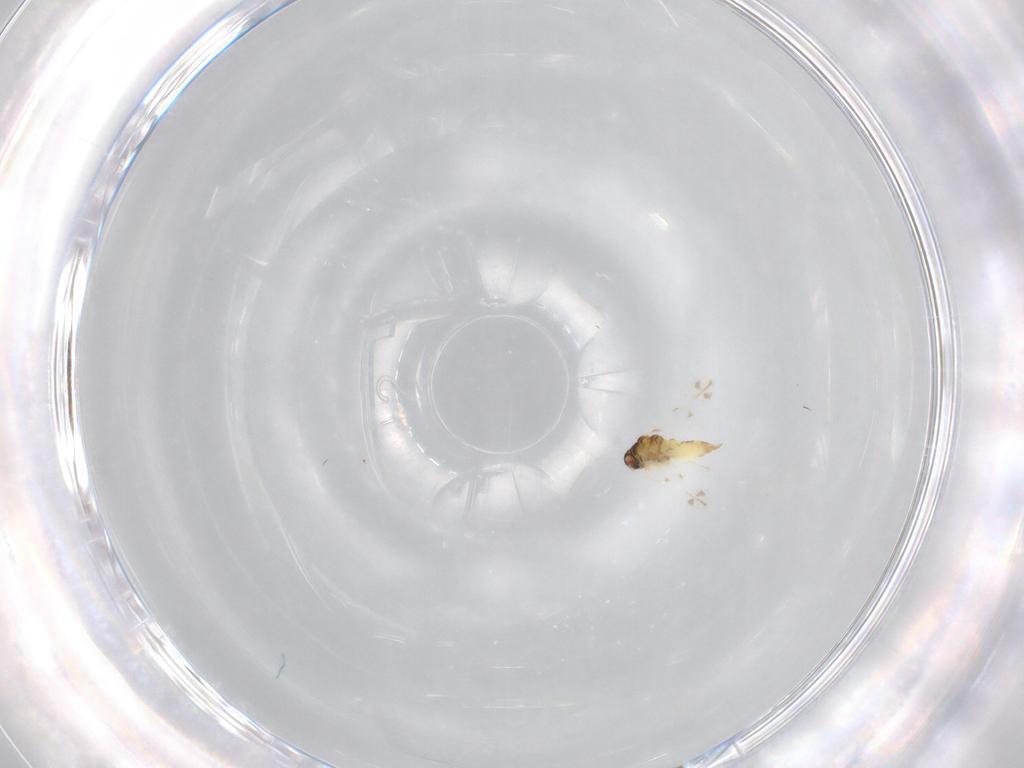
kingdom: Animalia
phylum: Arthropoda
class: Insecta
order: Hemiptera
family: Aleyrodidae
